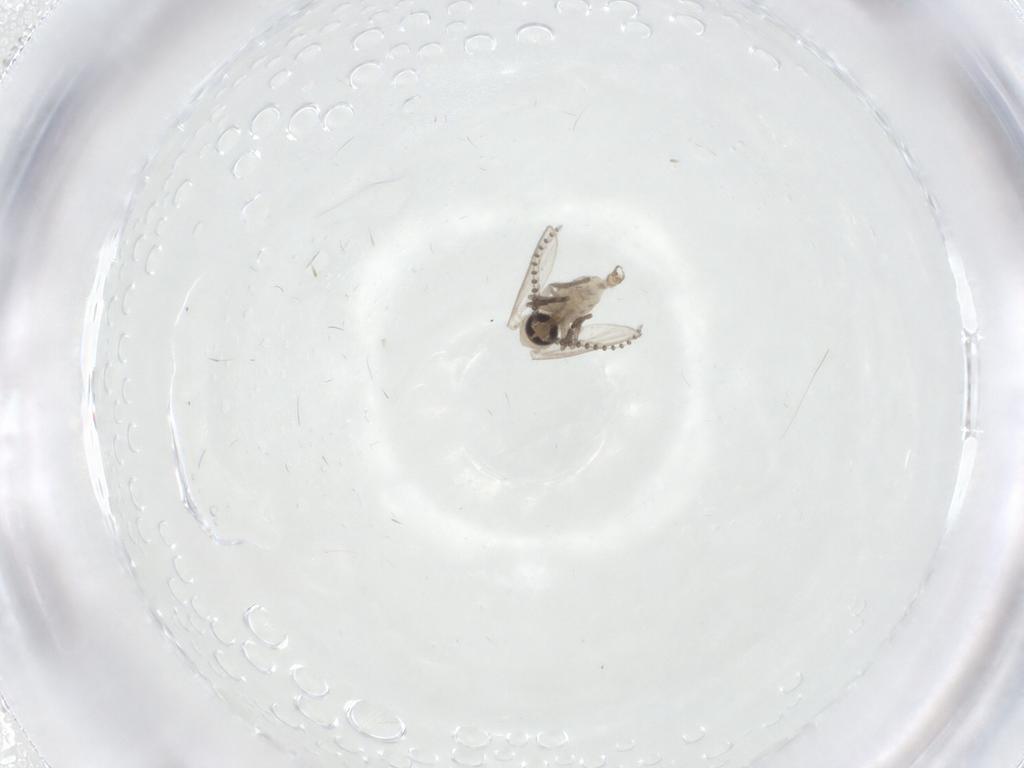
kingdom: Animalia
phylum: Arthropoda
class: Insecta
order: Diptera
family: Psychodidae
